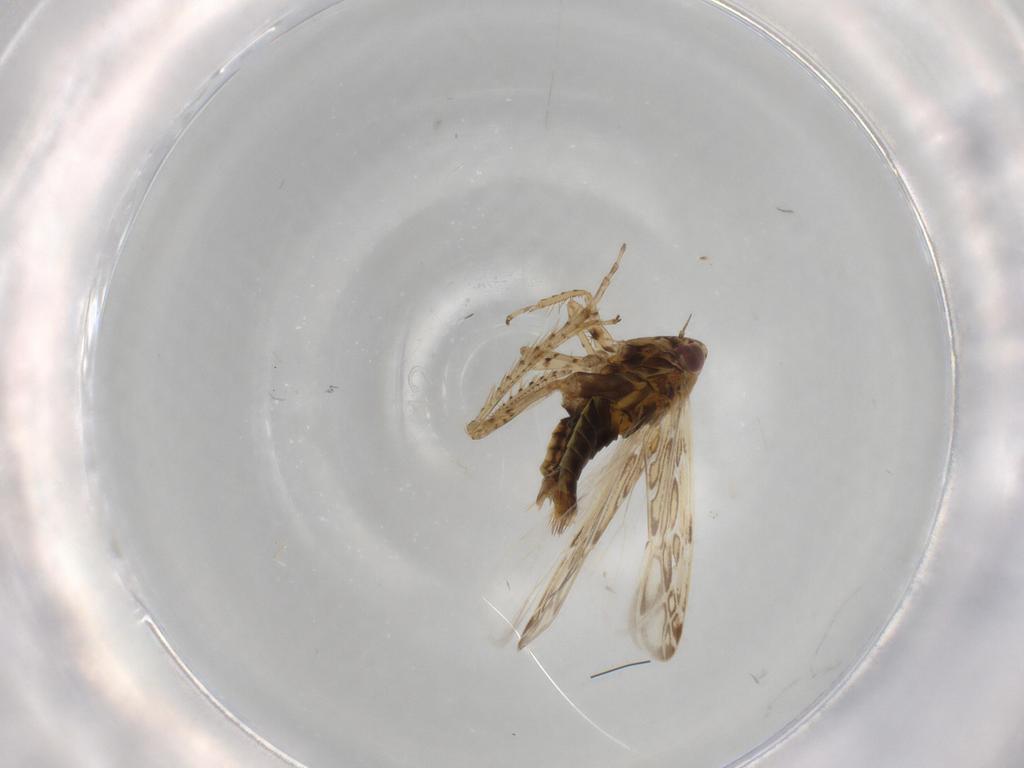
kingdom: Animalia
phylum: Arthropoda
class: Insecta
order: Hemiptera
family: Cicadellidae
